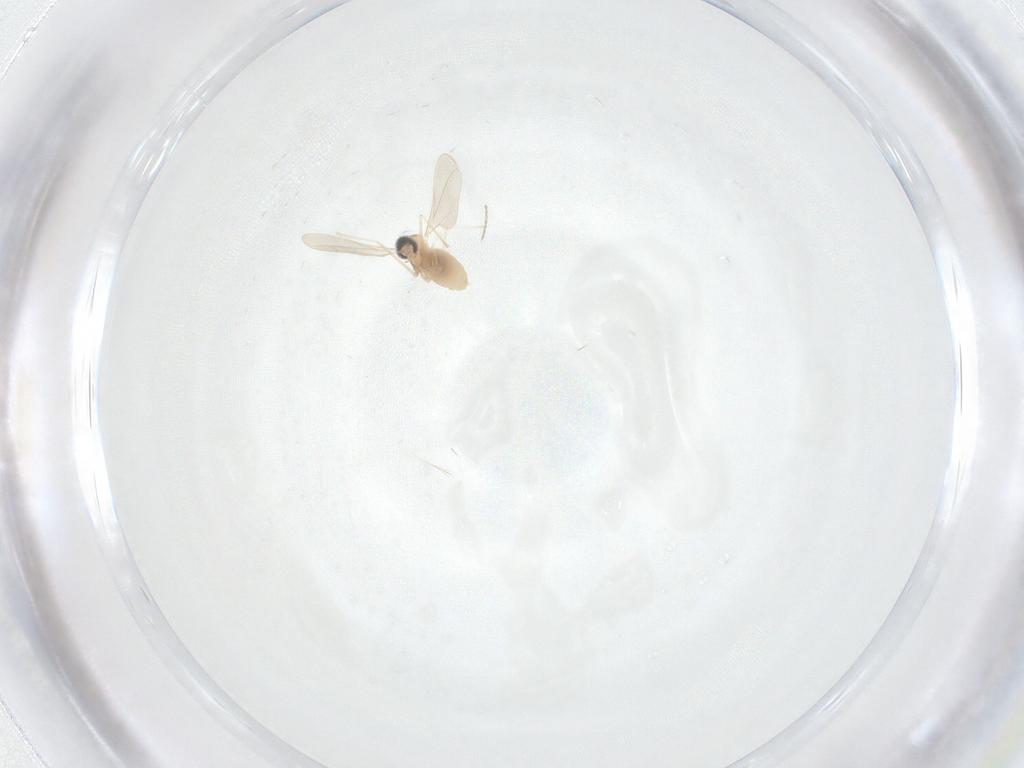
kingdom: Animalia
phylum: Arthropoda
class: Insecta
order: Diptera
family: Cecidomyiidae
